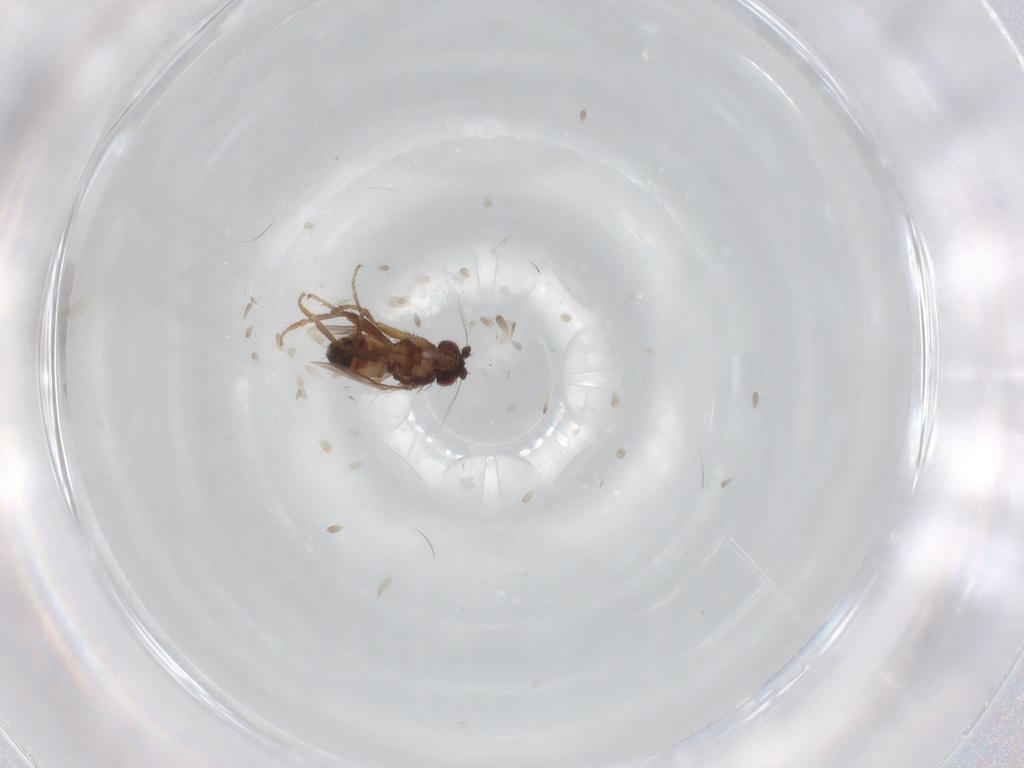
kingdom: Animalia
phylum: Arthropoda
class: Insecta
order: Diptera
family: Sphaeroceridae
